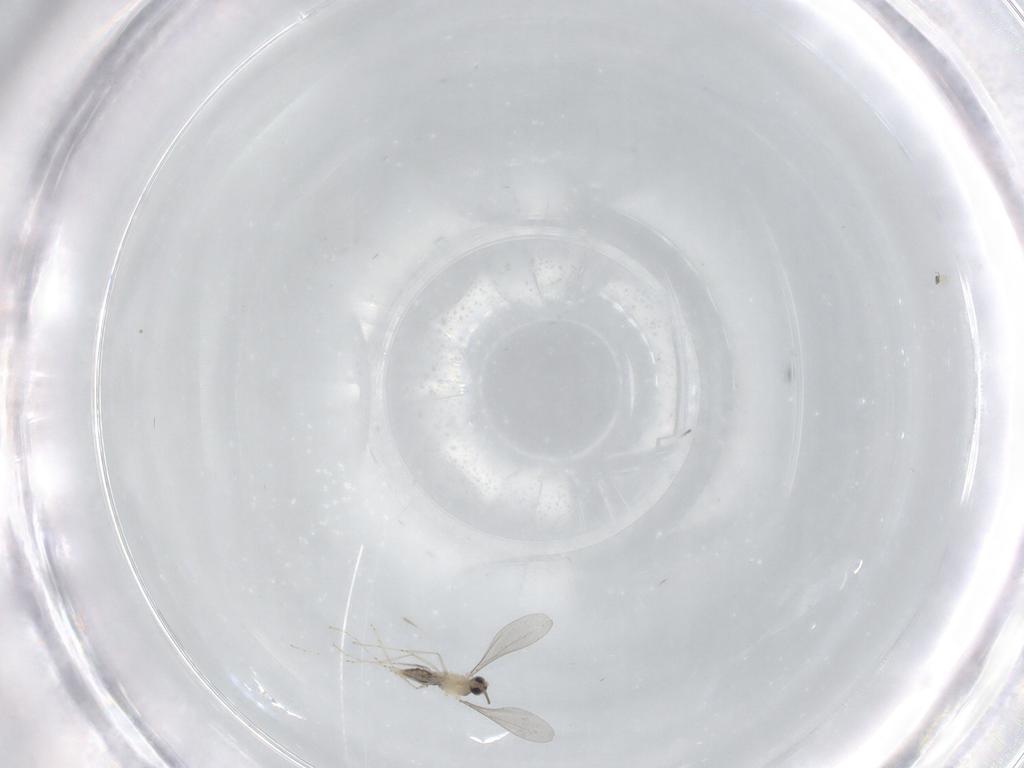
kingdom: Animalia
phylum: Arthropoda
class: Insecta
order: Diptera
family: Cecidomyiidae
